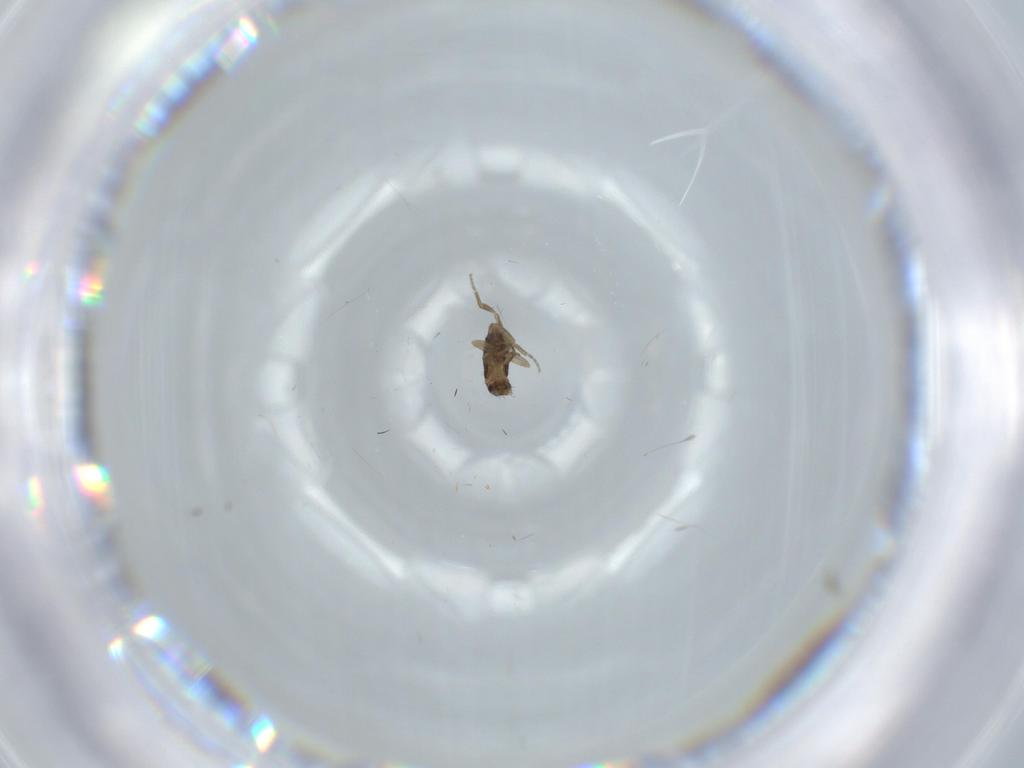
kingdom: Animalia
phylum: Arthropoda
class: Insecta
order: Diptera
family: Phoridae
